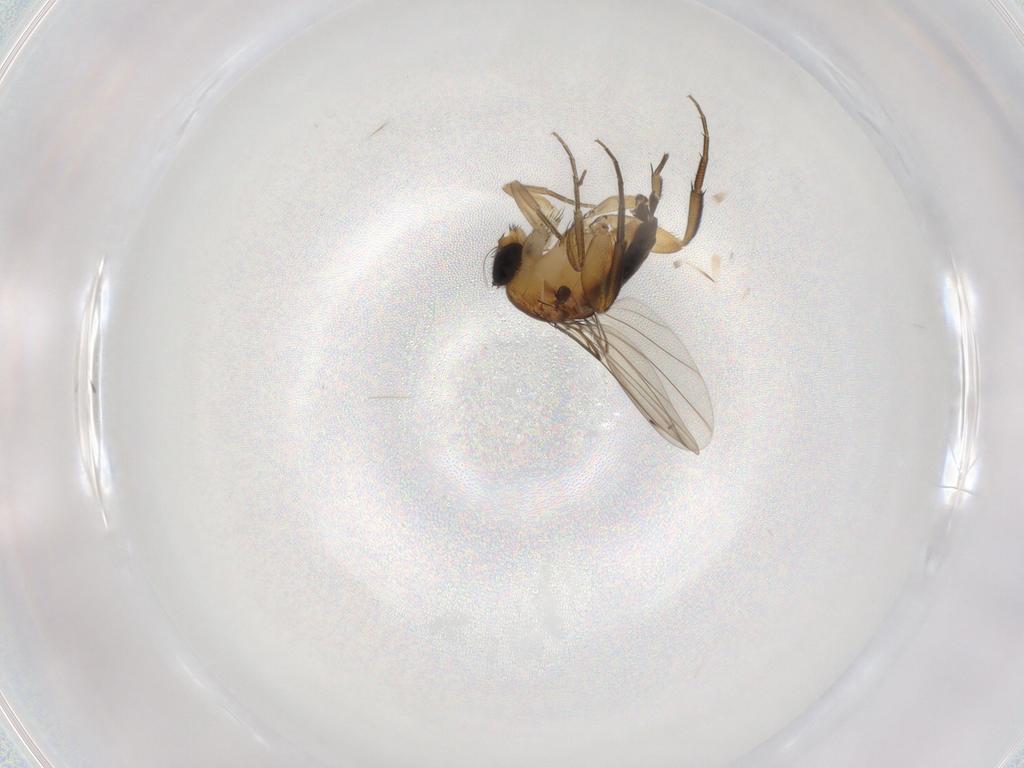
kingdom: Animalia
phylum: Arthropoda
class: Insecta
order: Diptera
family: Phoridae
